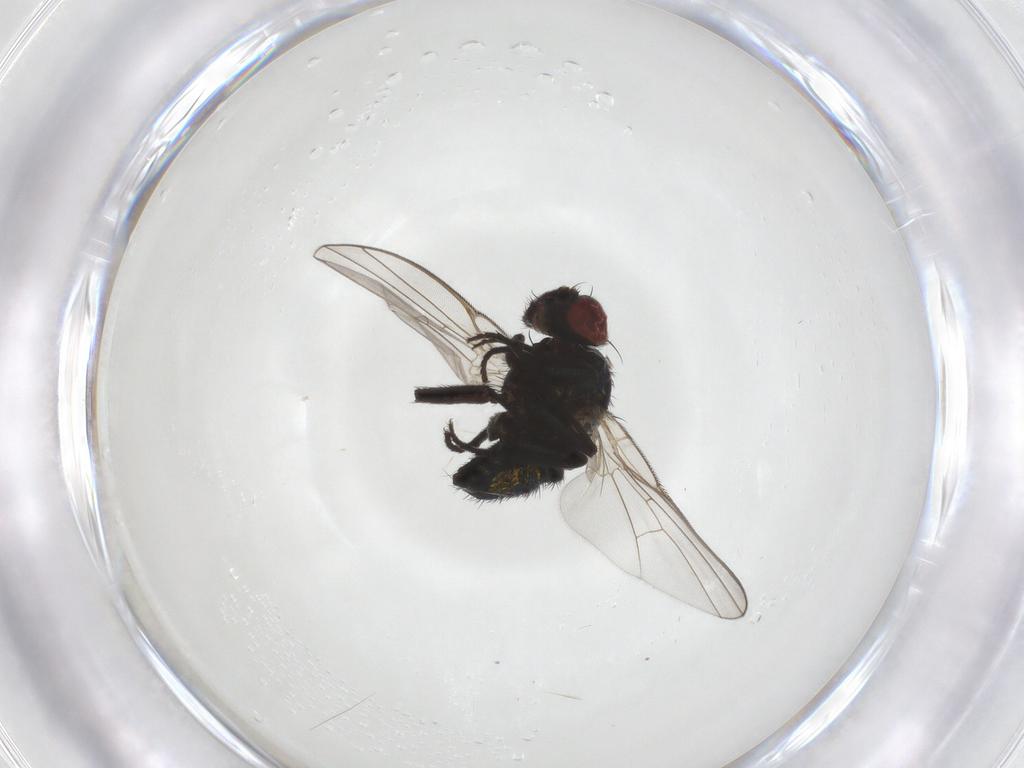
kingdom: Animalia
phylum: Arthropoda
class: Insecta
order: Diptera
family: Agromyzidae
